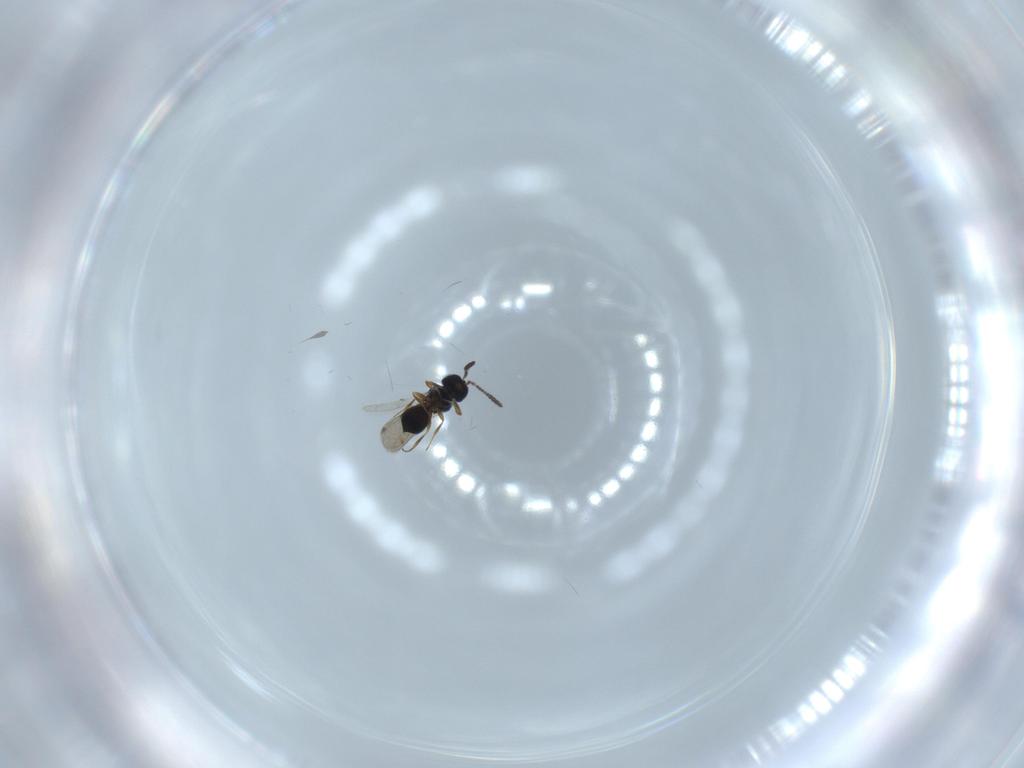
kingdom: Animalia
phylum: Arthropoda
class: Insecta
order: Hymenoptera
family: Scelionidae
